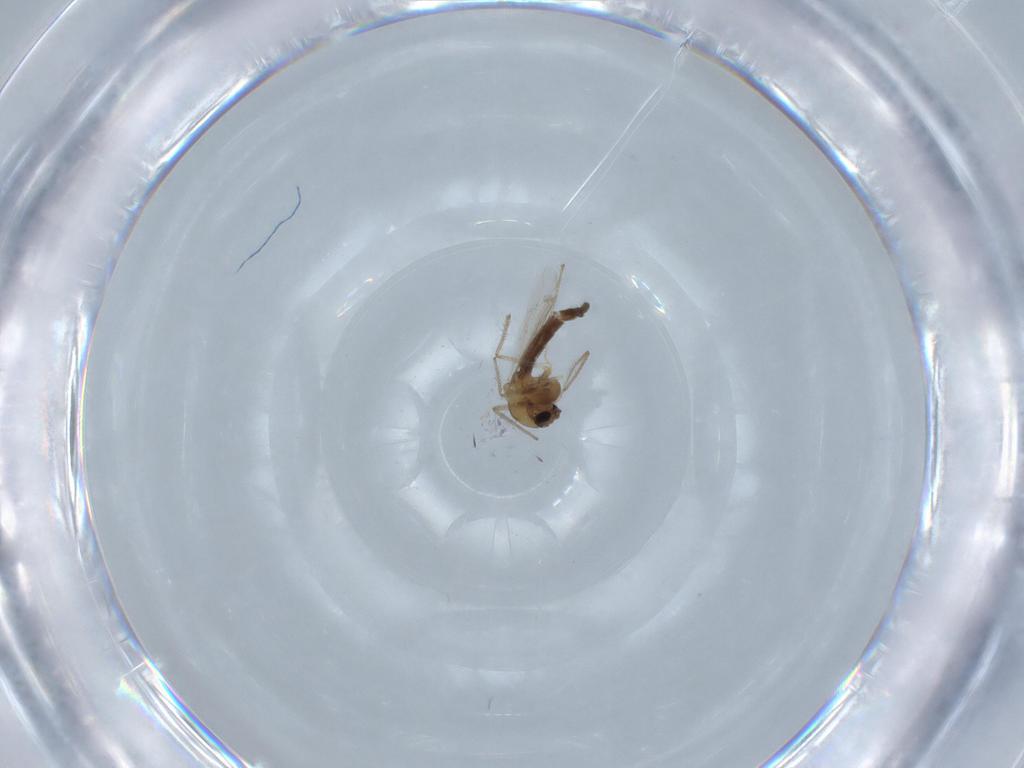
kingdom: Animalia
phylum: Arthropoda
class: Insecta
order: Diptera
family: Chironomidae
